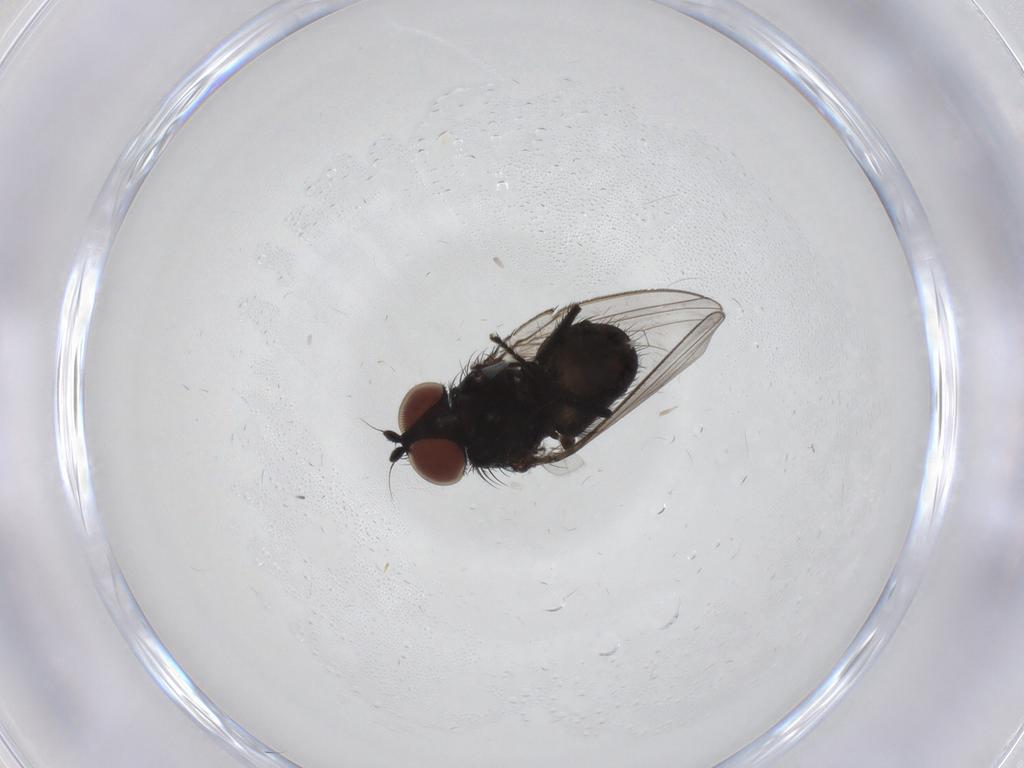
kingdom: Animalia
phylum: Arthropoda
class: Insecta
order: Diptera
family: Milichiidae
